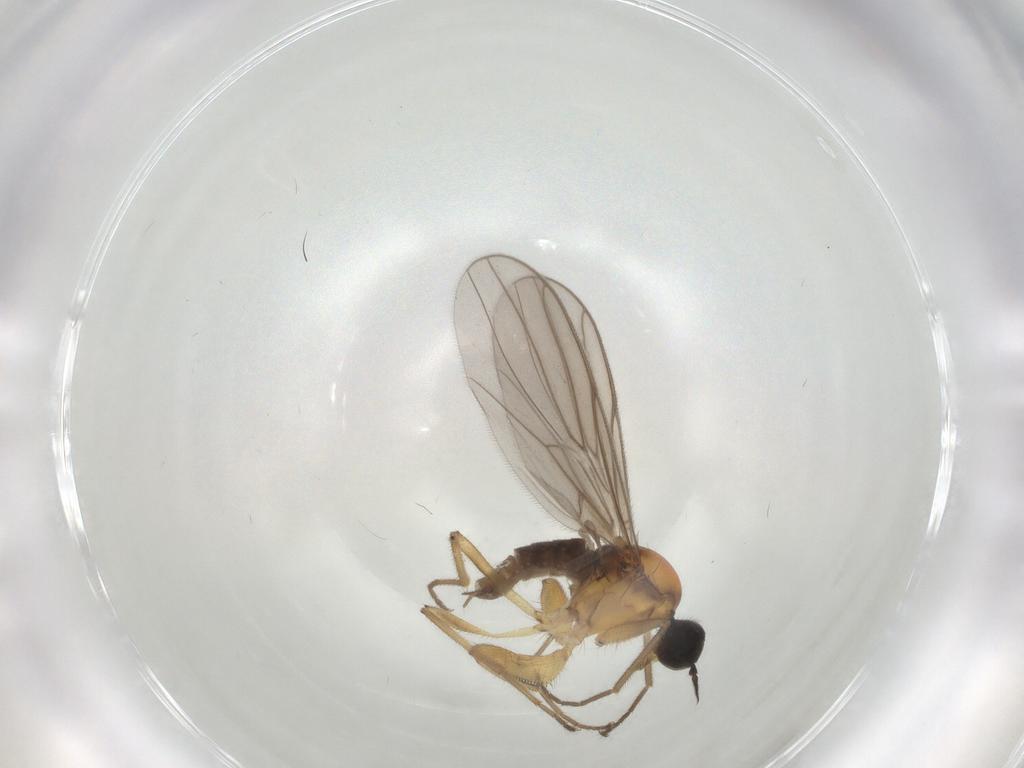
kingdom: Animalia
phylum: Arthropoda
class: Insecta
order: Diptera
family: Hybotidae
